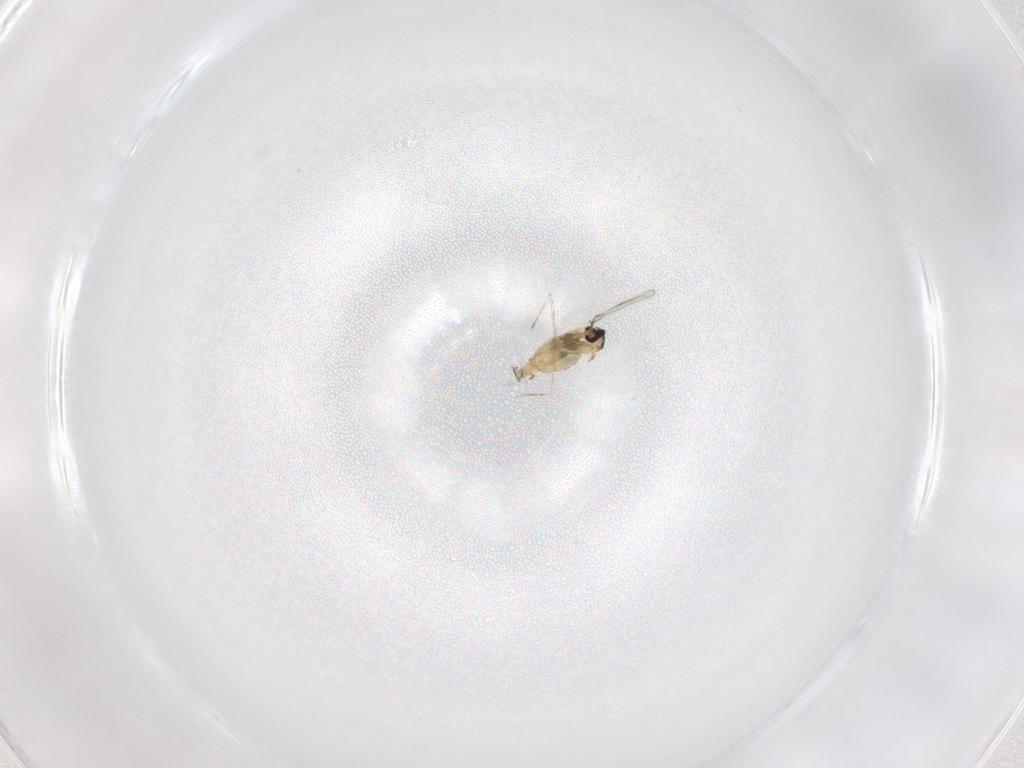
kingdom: Animalia
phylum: Arthropoda
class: Insecta
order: Diptera
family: Cecidomyiidae
